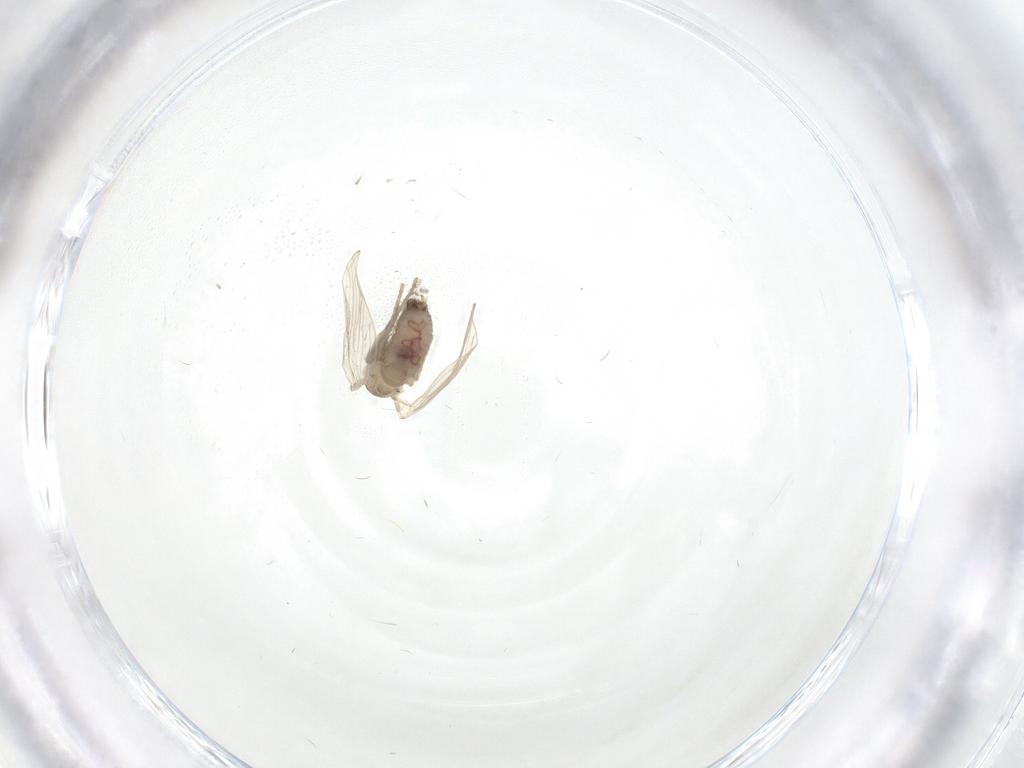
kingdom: Animalia
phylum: Arthropoda
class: Insecta
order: Diptera
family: Psychodidae
